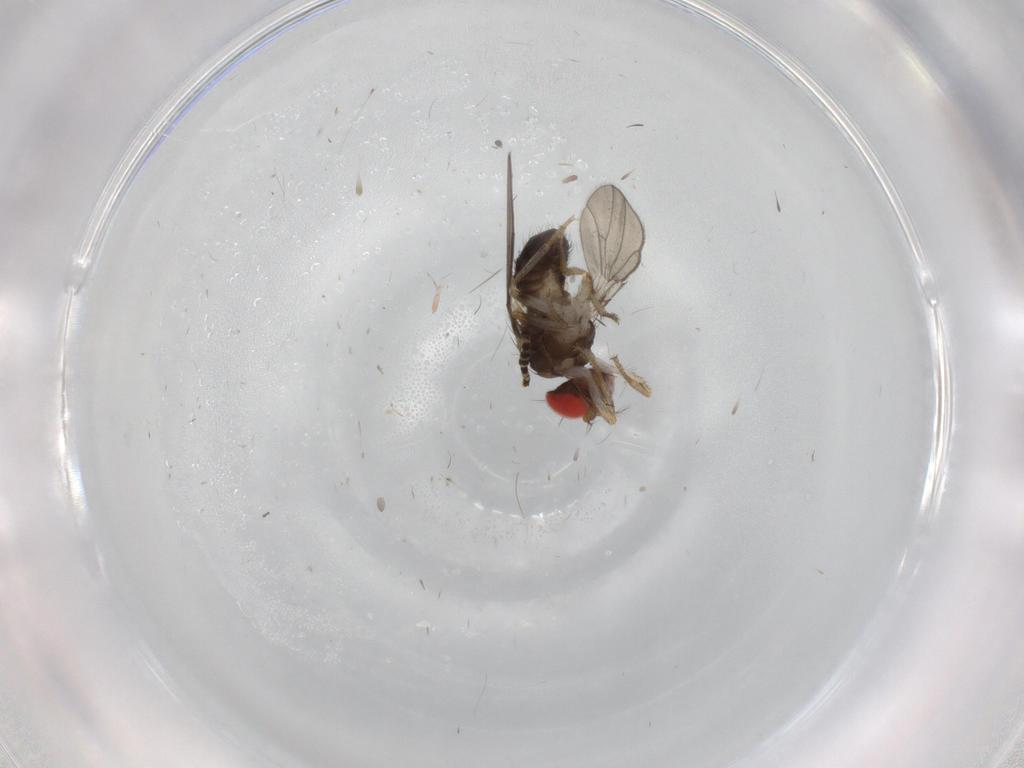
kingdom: Animalia
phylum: Arthropoda
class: Insecta
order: Diptera
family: Drosophilidae
